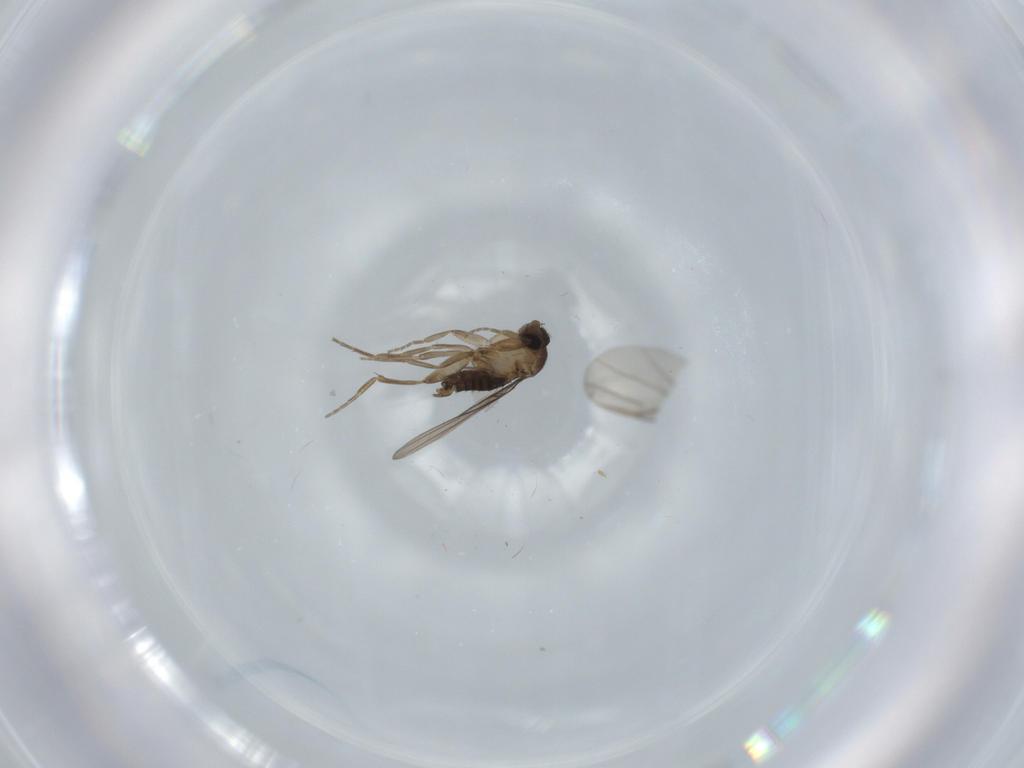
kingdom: Animalia
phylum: Arthropoda
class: Insecta
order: Diptera
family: Phoridae
